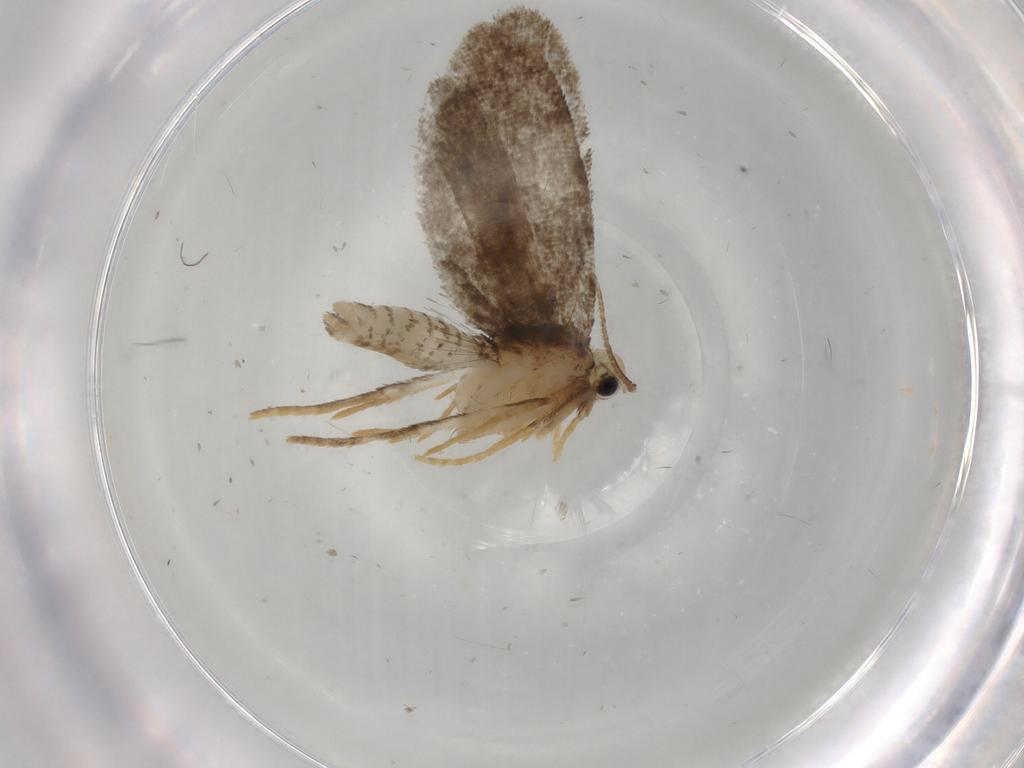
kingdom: Animalia
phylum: Arthropoda
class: Insecta
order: Lepidoptera
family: Psychidae
